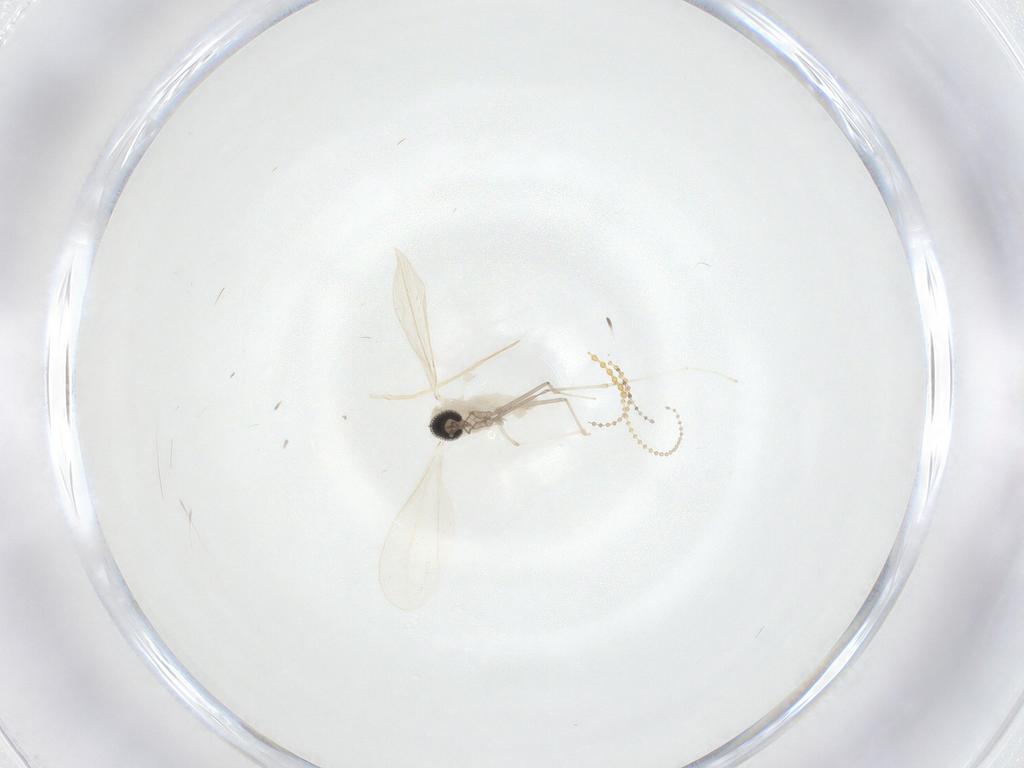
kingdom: Animalia
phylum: Arthropoda
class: Insecta
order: Diptera
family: Cecidomyiidae
